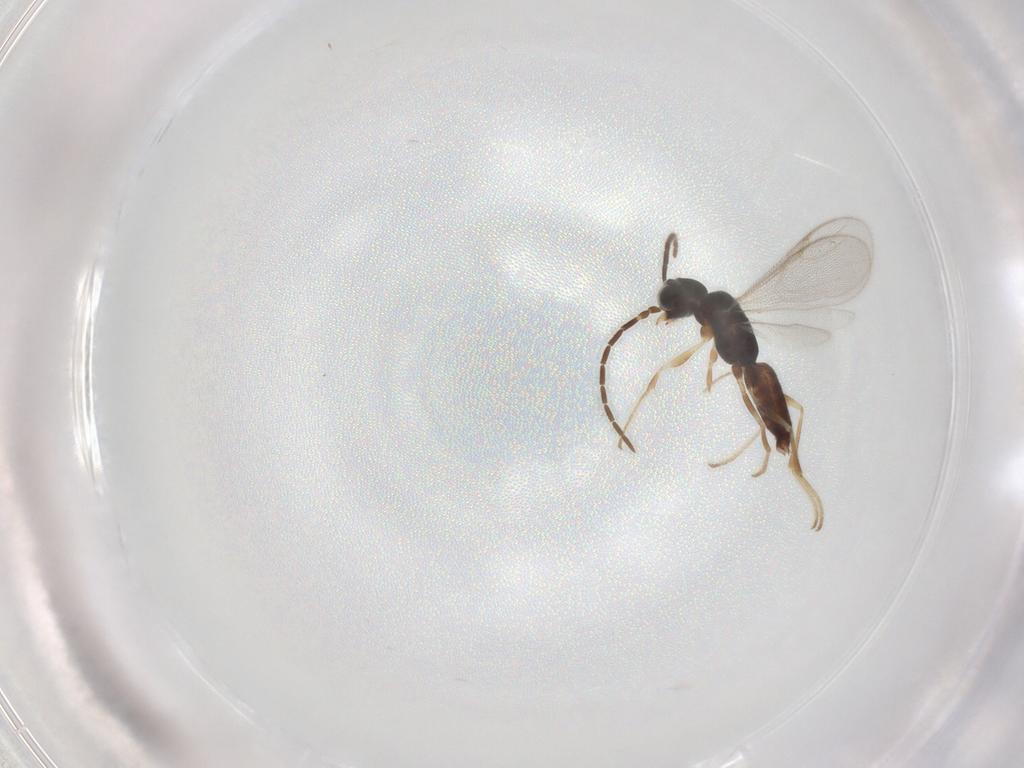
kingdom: Animalia
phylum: Arthropoda
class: Insecta
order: Hymenoptera
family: Dryinidae
